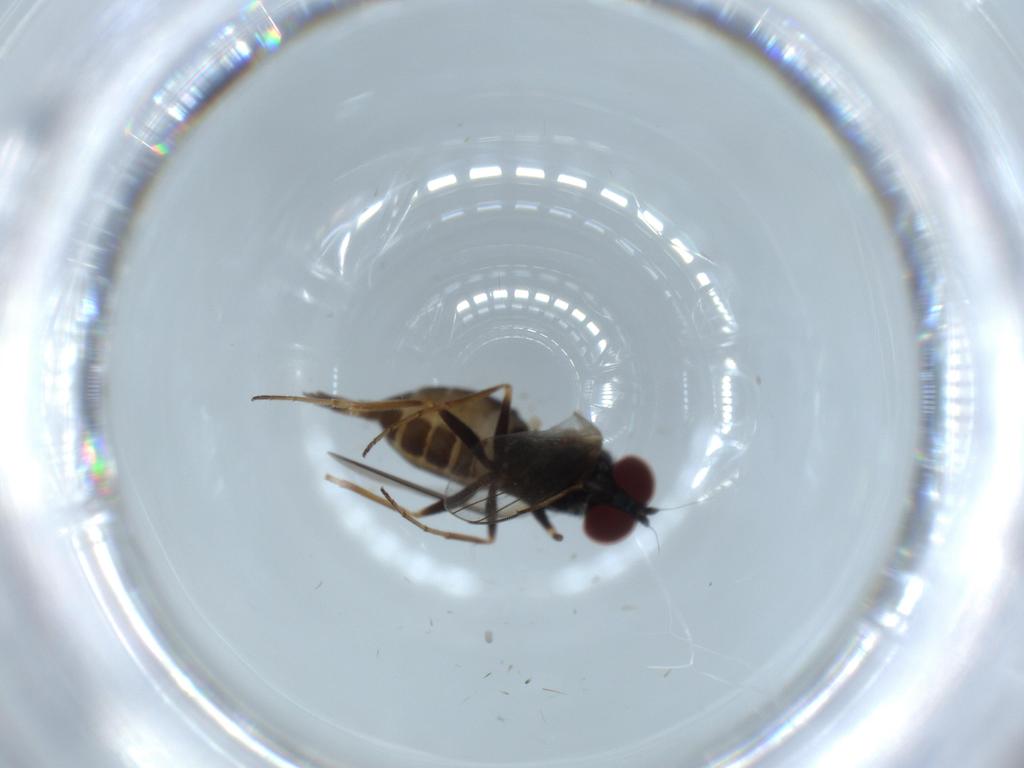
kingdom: Animalia
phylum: Arthropoda
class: Insecta
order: Diptera
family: Dolichopodidae
